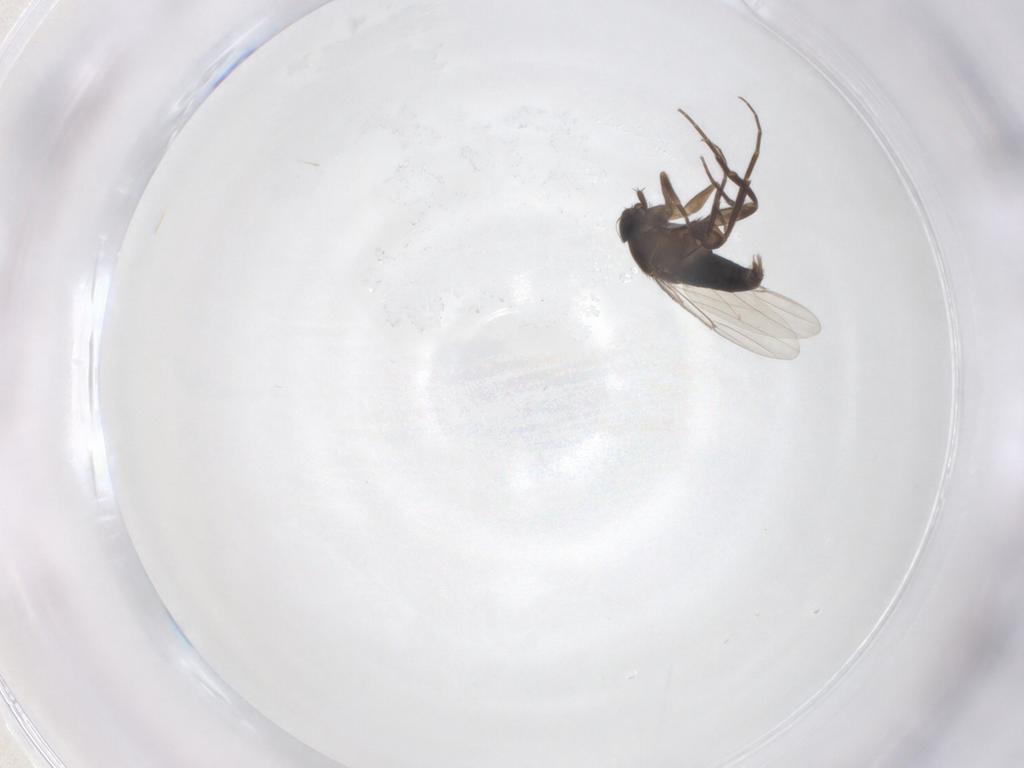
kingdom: Animalia
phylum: Arthropoda
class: Insecta
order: Diptera
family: Phoridae
